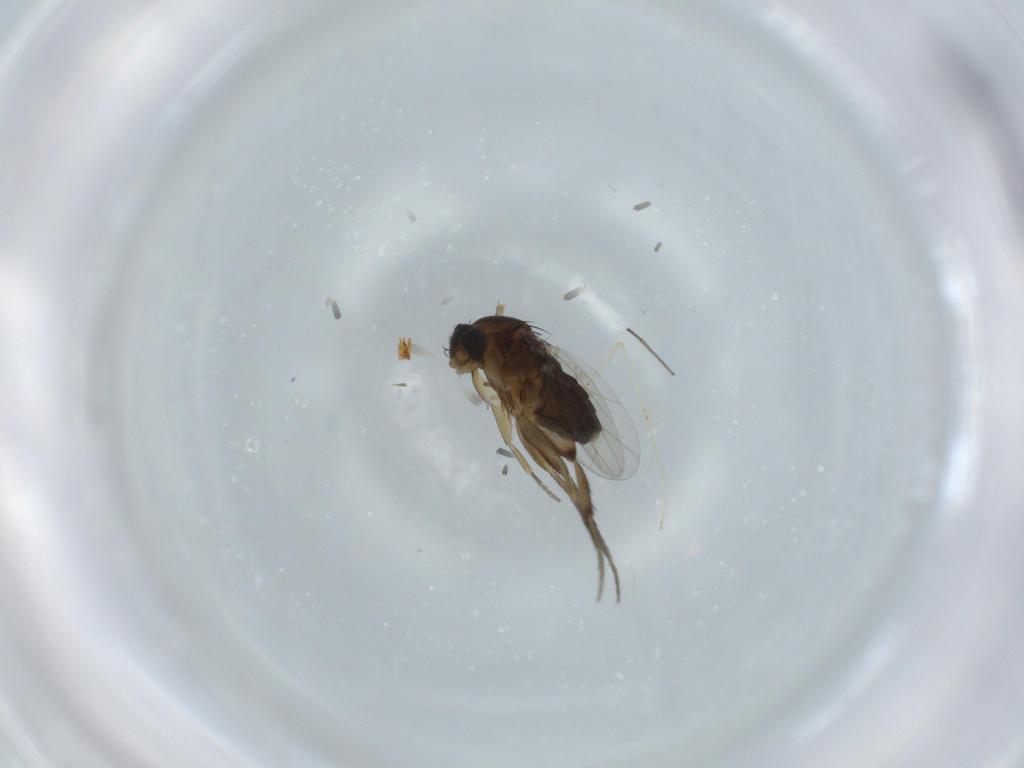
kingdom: Animalia
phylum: Arthropoda
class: Insecta
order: Diptera
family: Phoridae
